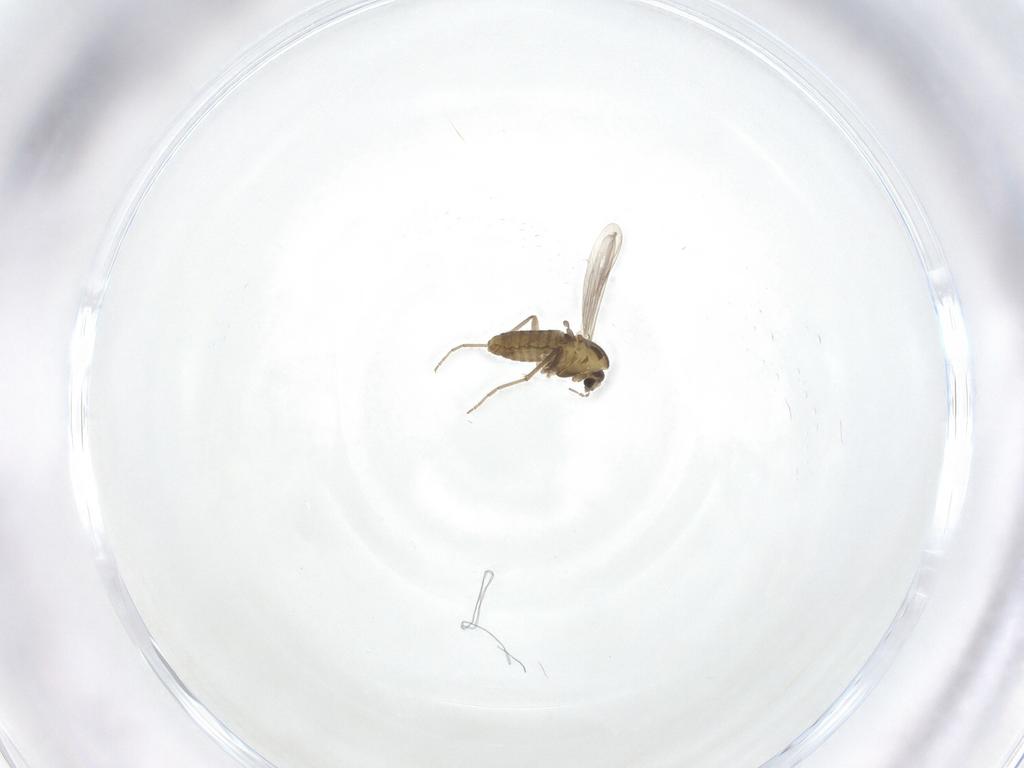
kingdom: Animalia
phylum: Arthropoda
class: Insecta
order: Diptera
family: Chironomidae
